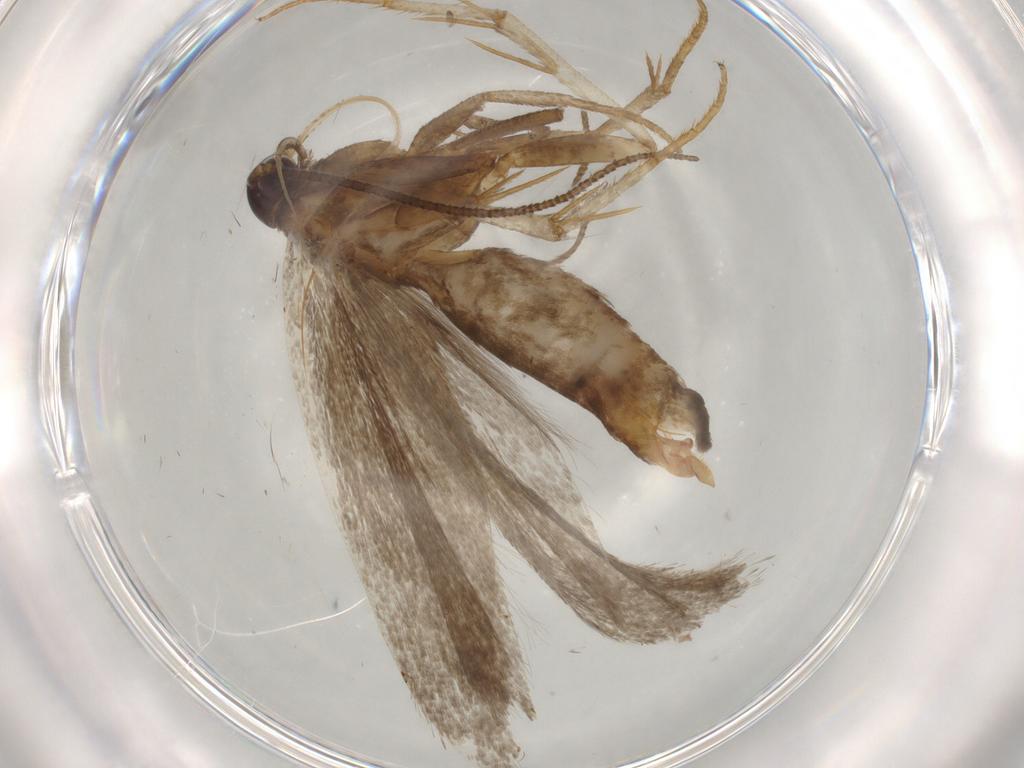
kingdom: Animalia
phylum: Arthropoda
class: Insecta
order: Lepidoptera
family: Gelechiidae
